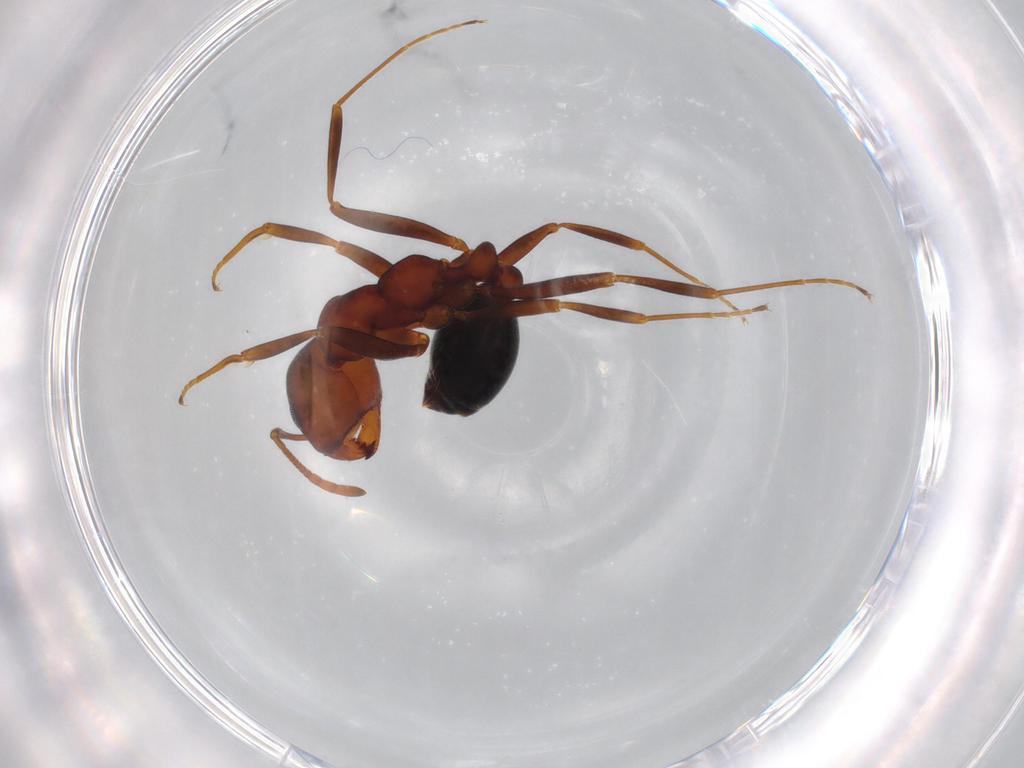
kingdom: Animalia
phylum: Arthropoda
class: Insecta
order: Hymenoptera
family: Formicidae
